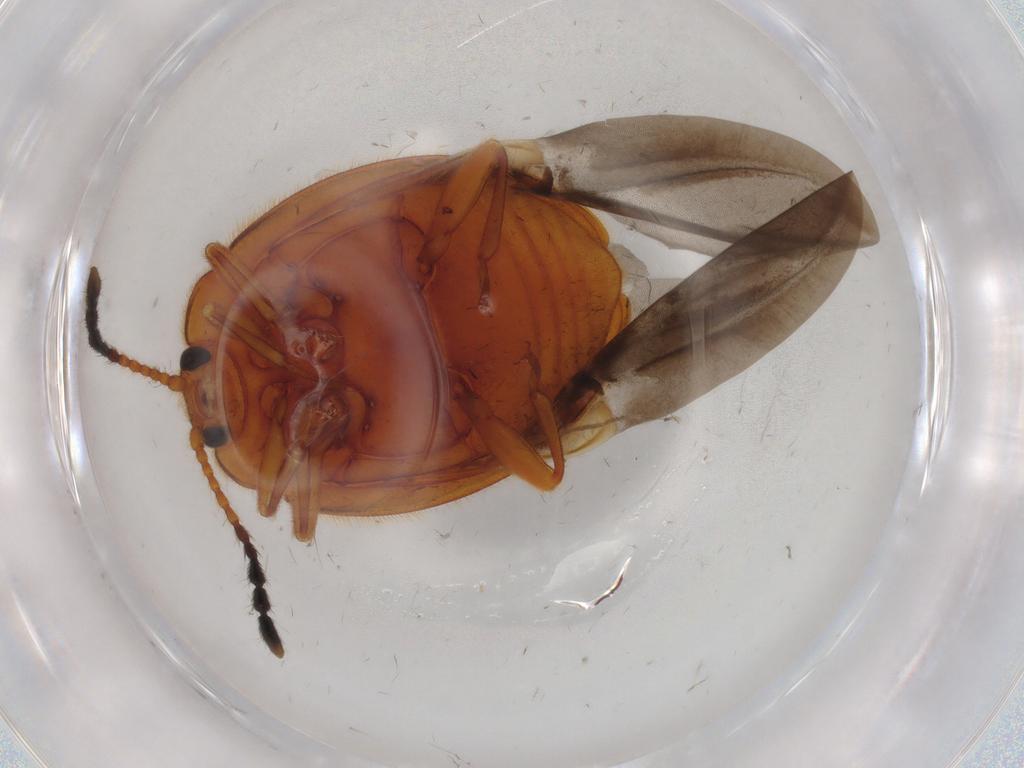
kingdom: Animalia
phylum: Arthropoda
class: Insecta
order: Coleoptera
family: Endomychidae
